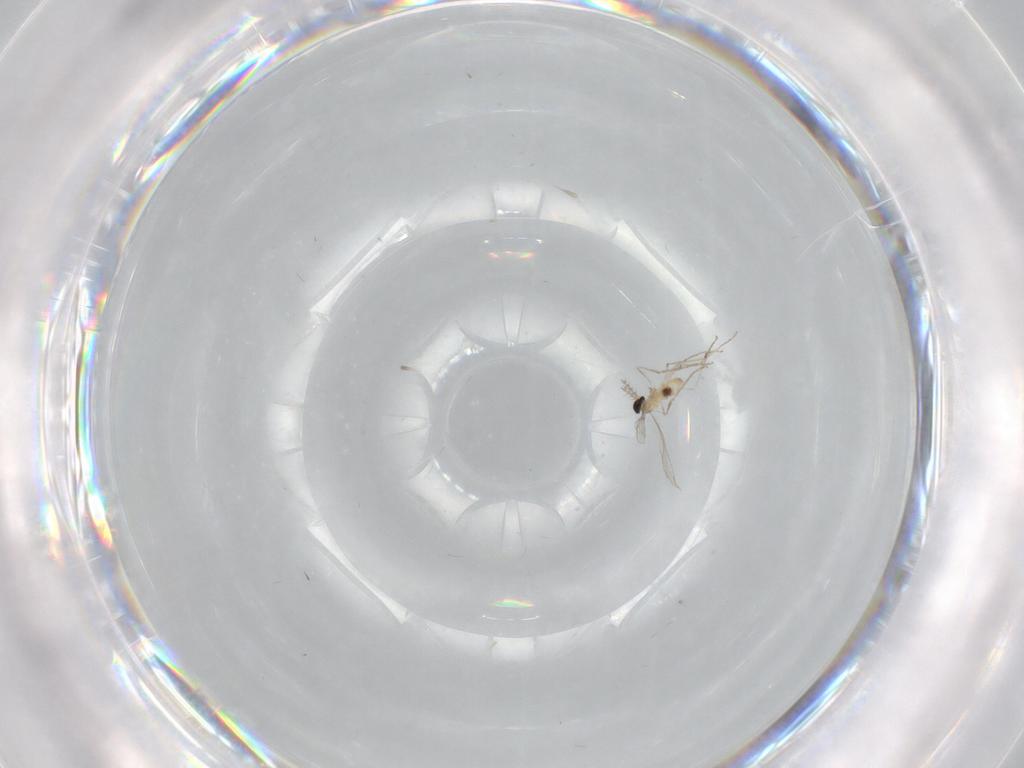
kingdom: Animalia
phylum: Arthropoda
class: Insecta
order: Diptera
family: Cecidomyiidae
